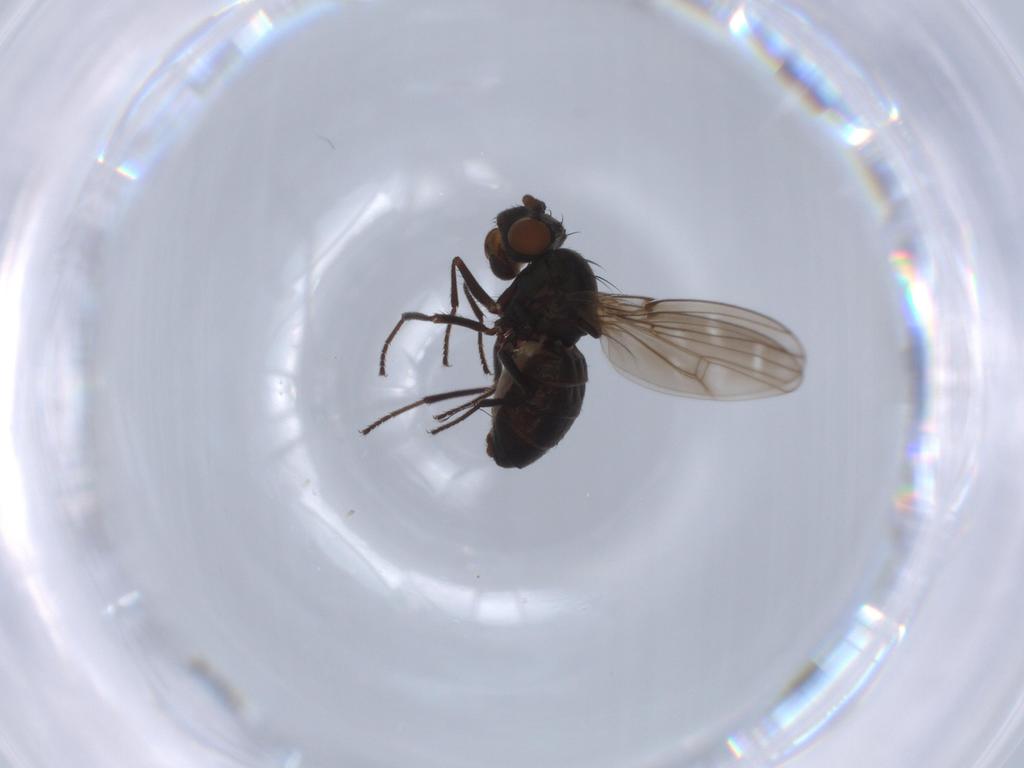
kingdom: Animalia
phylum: Arthropoda
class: Insecta
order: Diptera
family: Ephydridae
